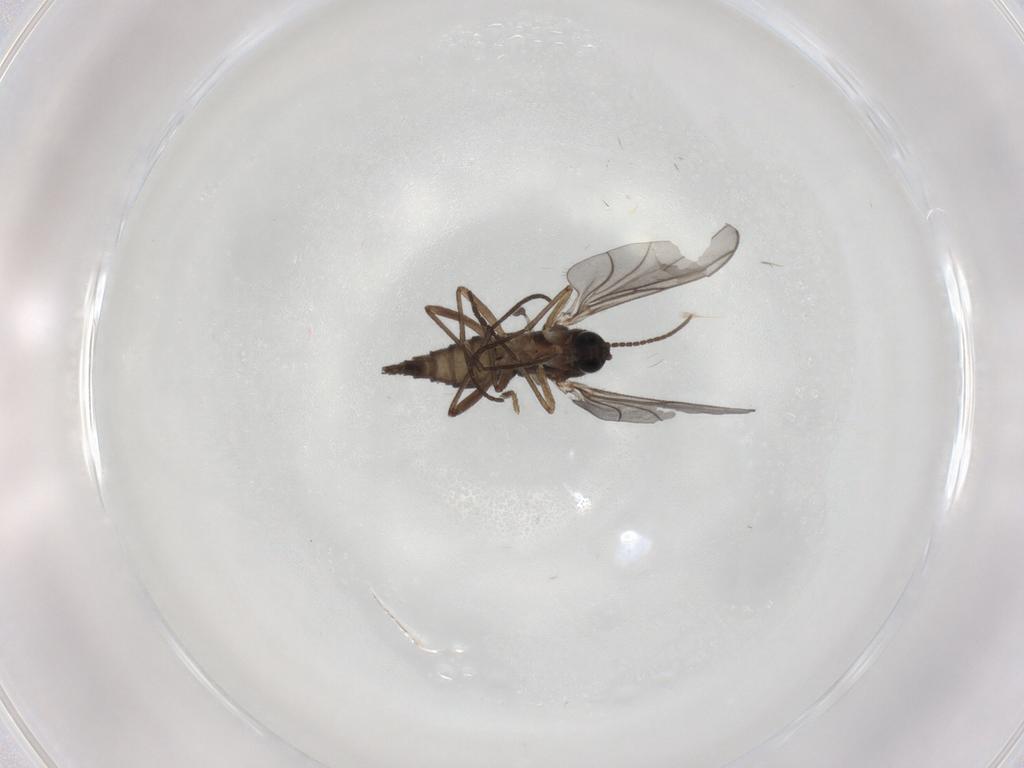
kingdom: Animalia
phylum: Arthropoda
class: Insecta
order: Diptera
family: Sciaridae
